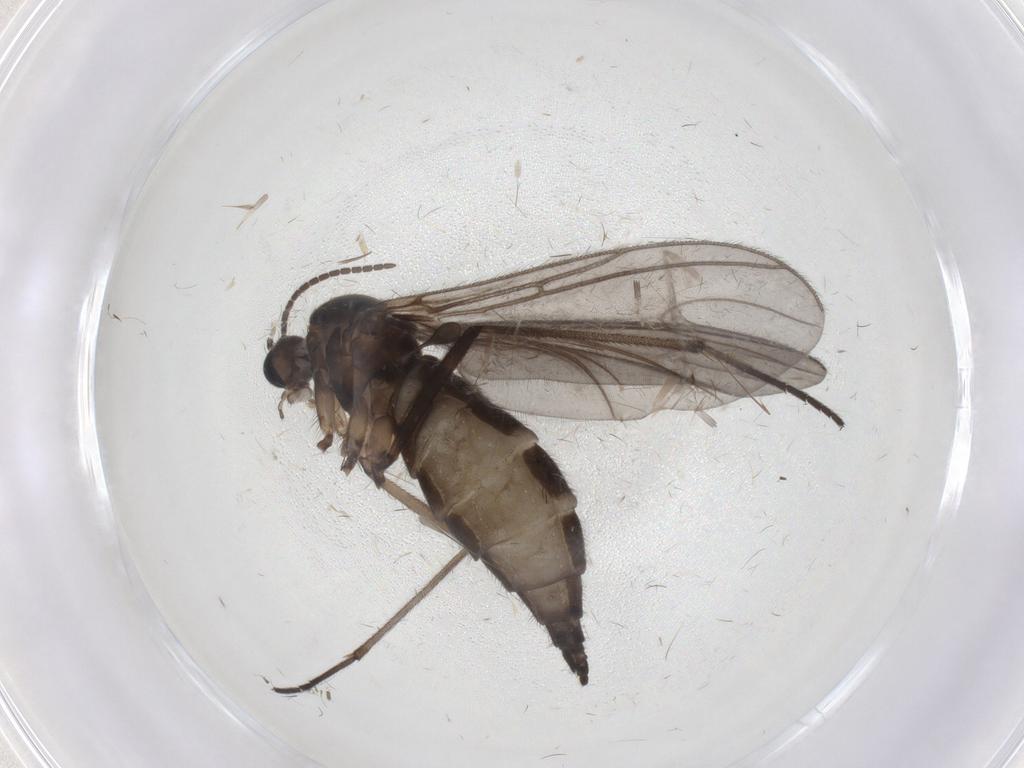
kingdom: Animalia
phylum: Arthropoda
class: Insecta
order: Diptera
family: Sciaridae
